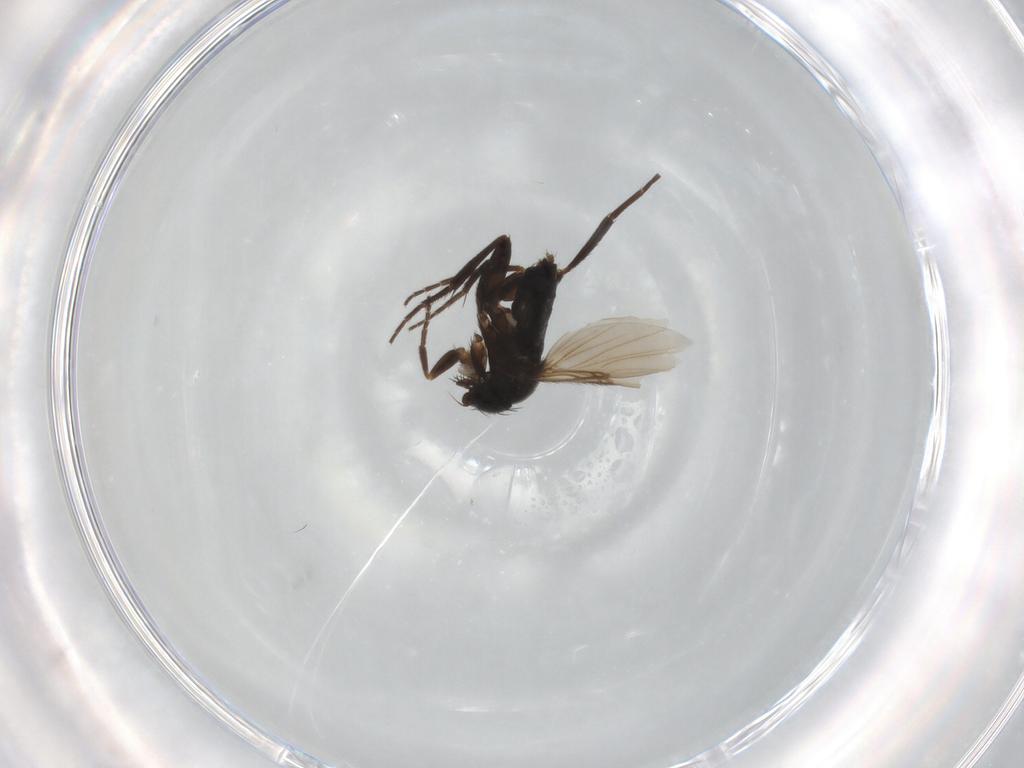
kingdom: Animalia
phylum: Arthropoda
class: Insecta
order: Diptera
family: Phoridae
